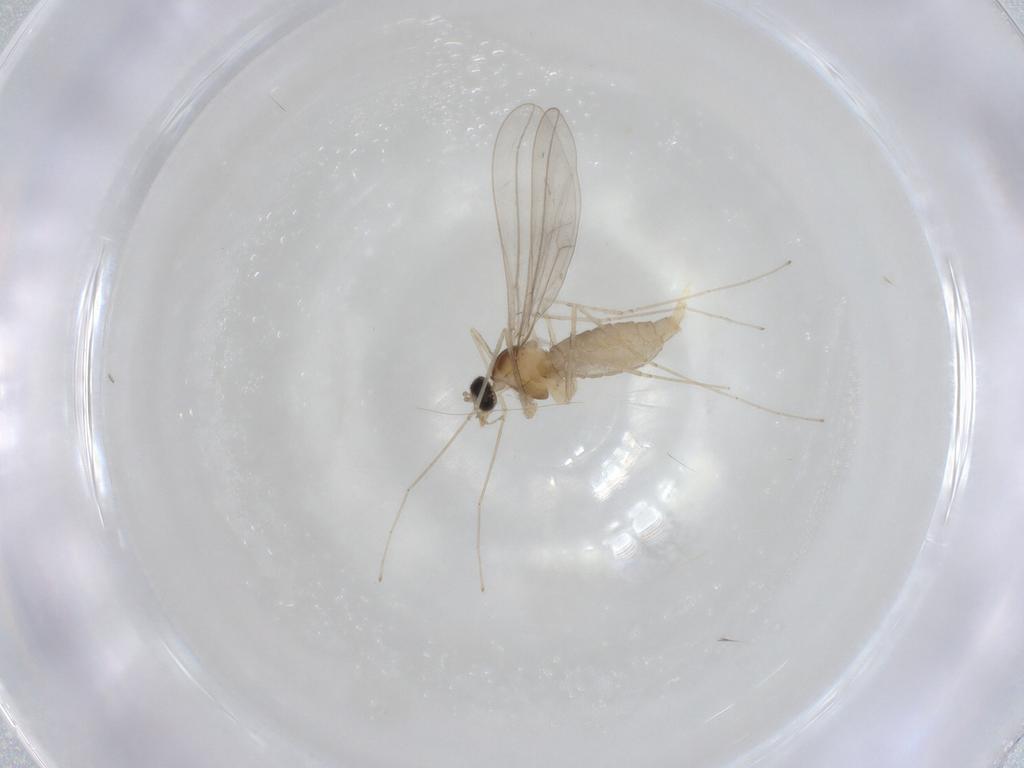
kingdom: Animalia
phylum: Arthropoda
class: Insecta
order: Diptera
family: Cecidomyiidae
